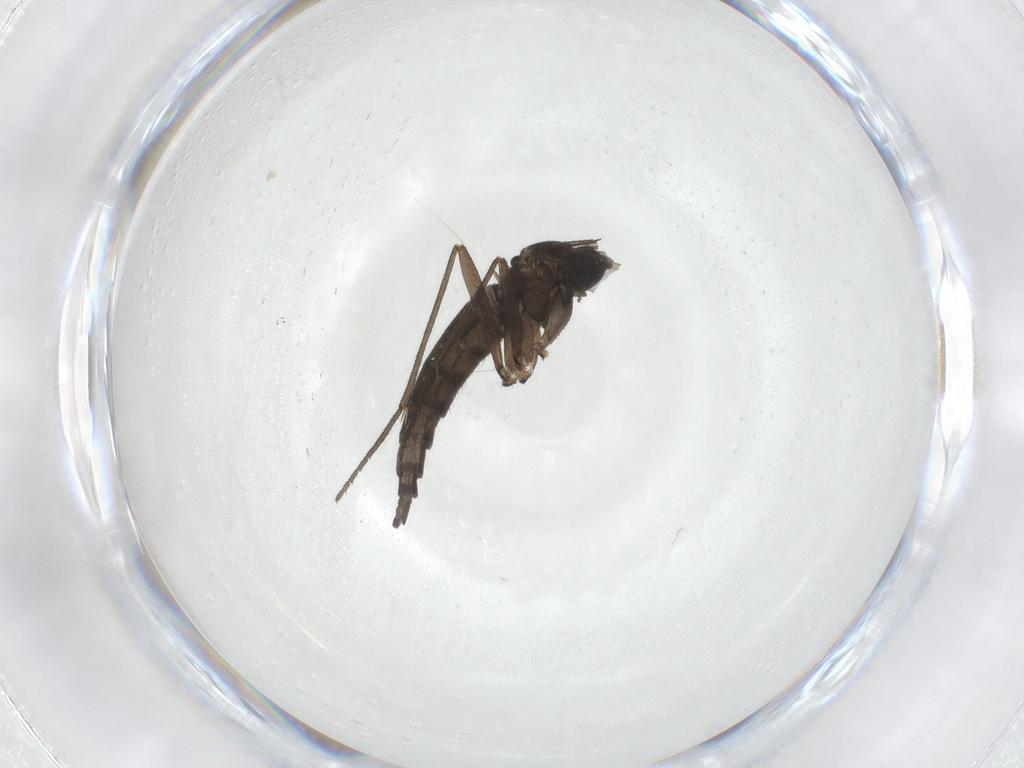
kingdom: Animalia
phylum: Arthropoda
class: Insecta
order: Diptera
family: Sciaridae
